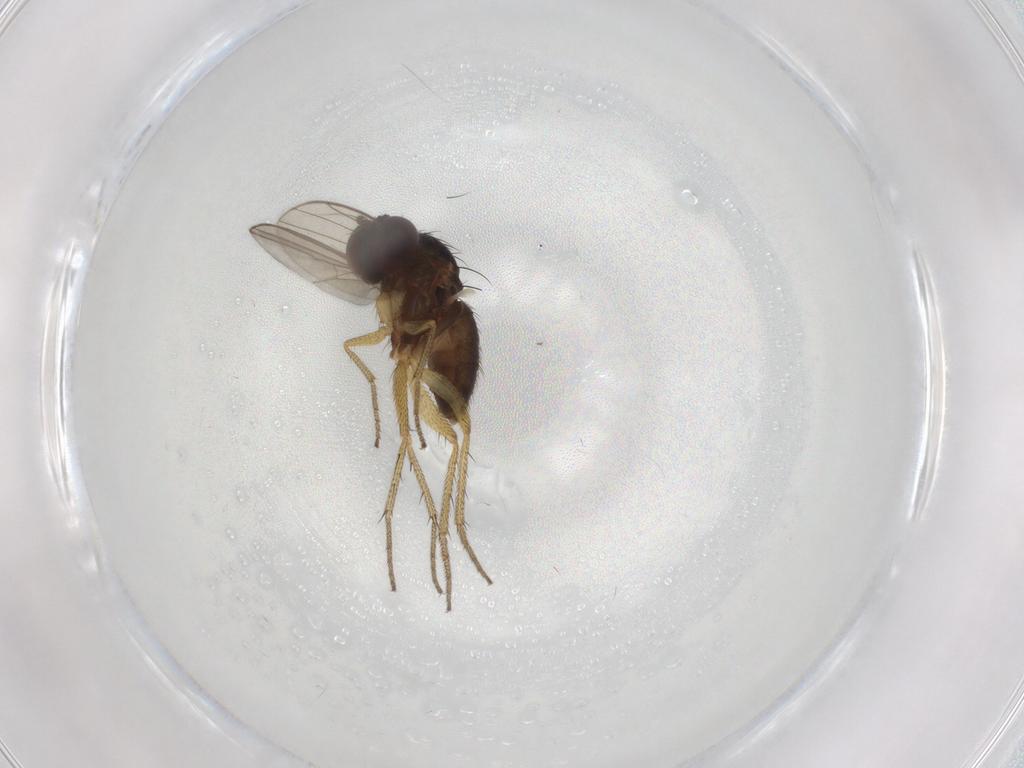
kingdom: Animalia
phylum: Arthropoda
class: Insecta
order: Diptera
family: Dolichopodidae
